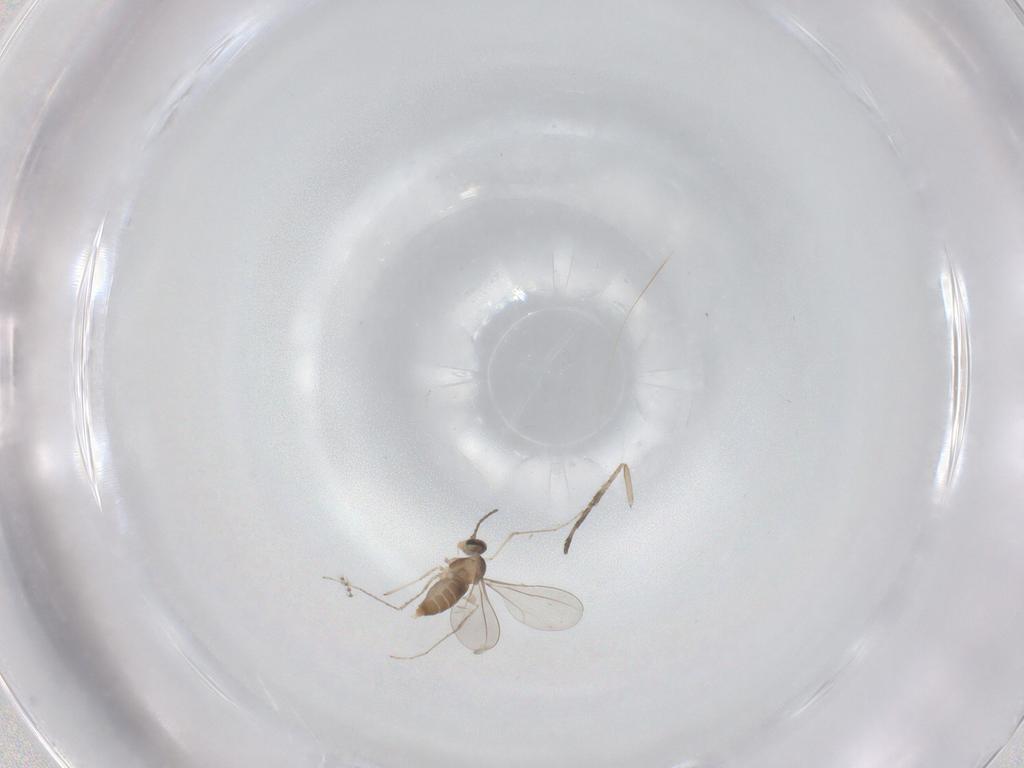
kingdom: Animalia
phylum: Arthropoda
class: Insecta
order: Diptera
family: Cecidomyiidae
